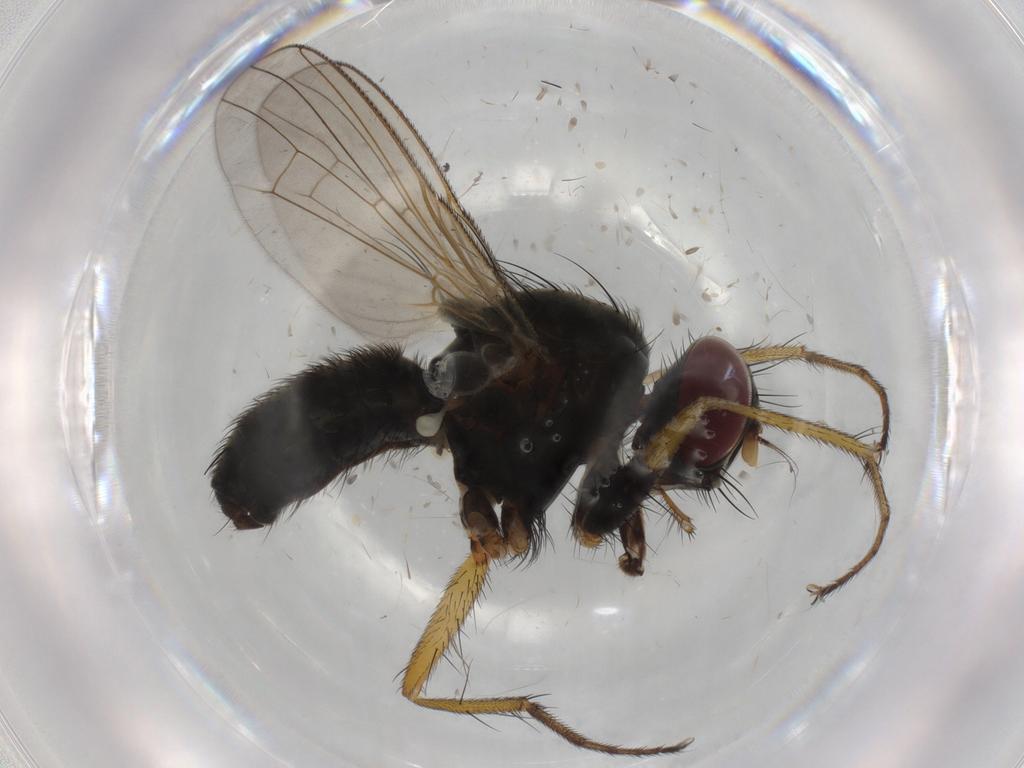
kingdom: Animalia
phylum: Arthropoda
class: Insecta
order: Diptera
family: Muscidae
